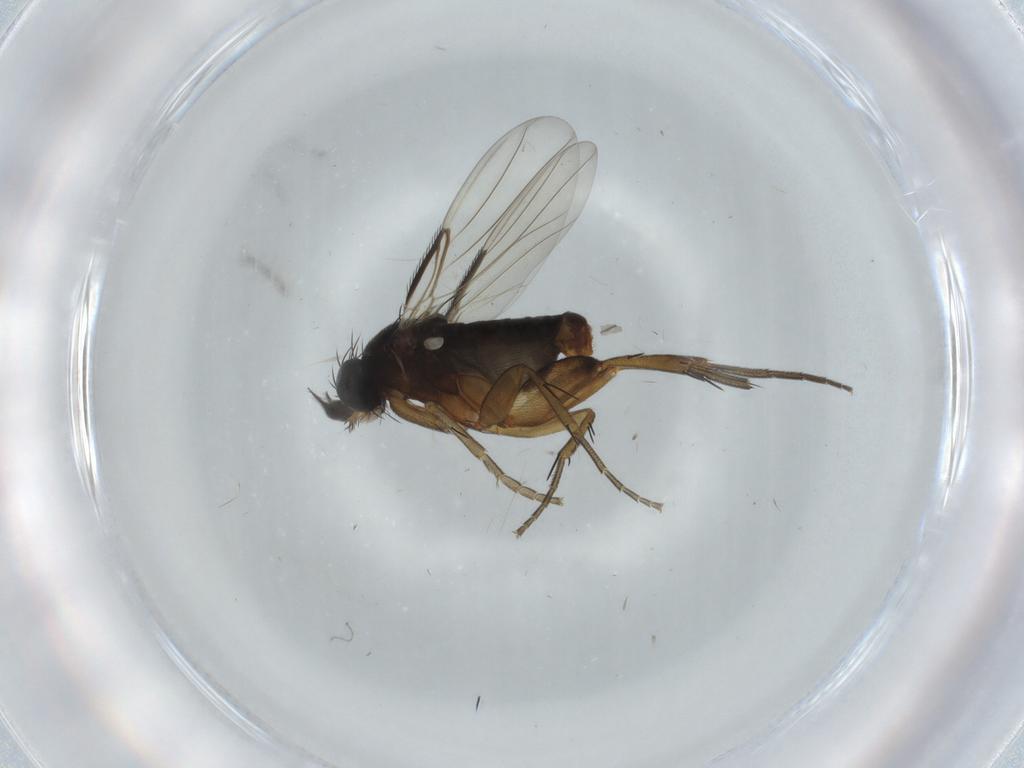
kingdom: Animalia
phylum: Arthropoda
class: Insecta
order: Diptera
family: Phoridae
